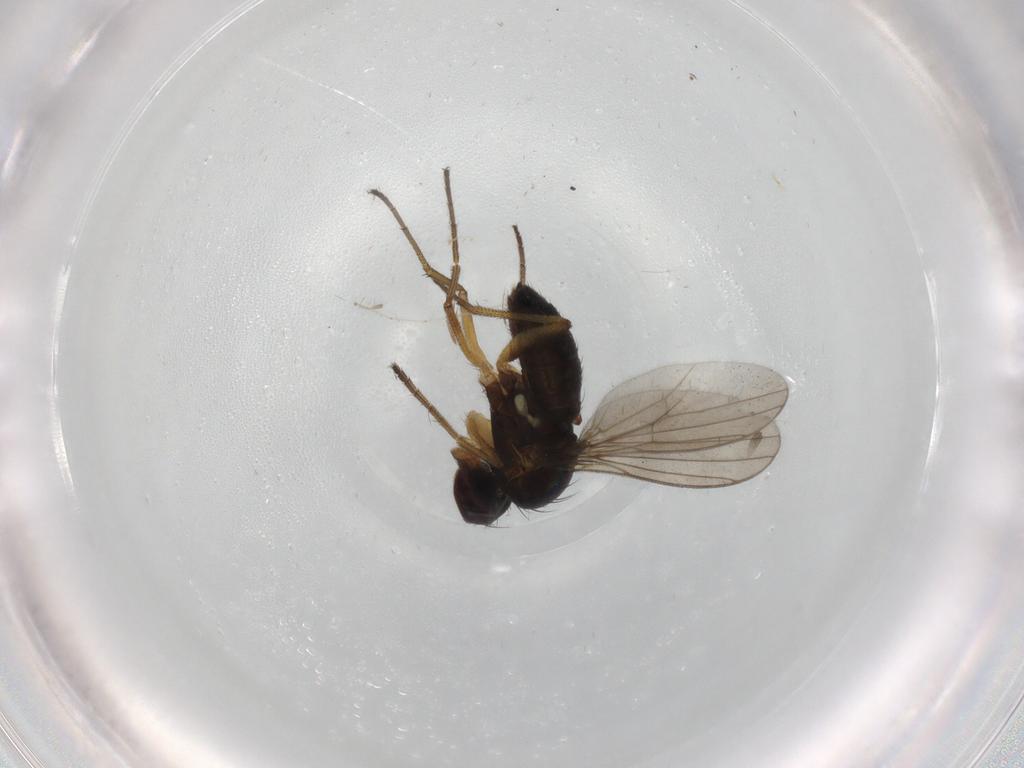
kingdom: Animalia
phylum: Arthropoda
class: Insecta
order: Diptera
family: Dolichopodidae
